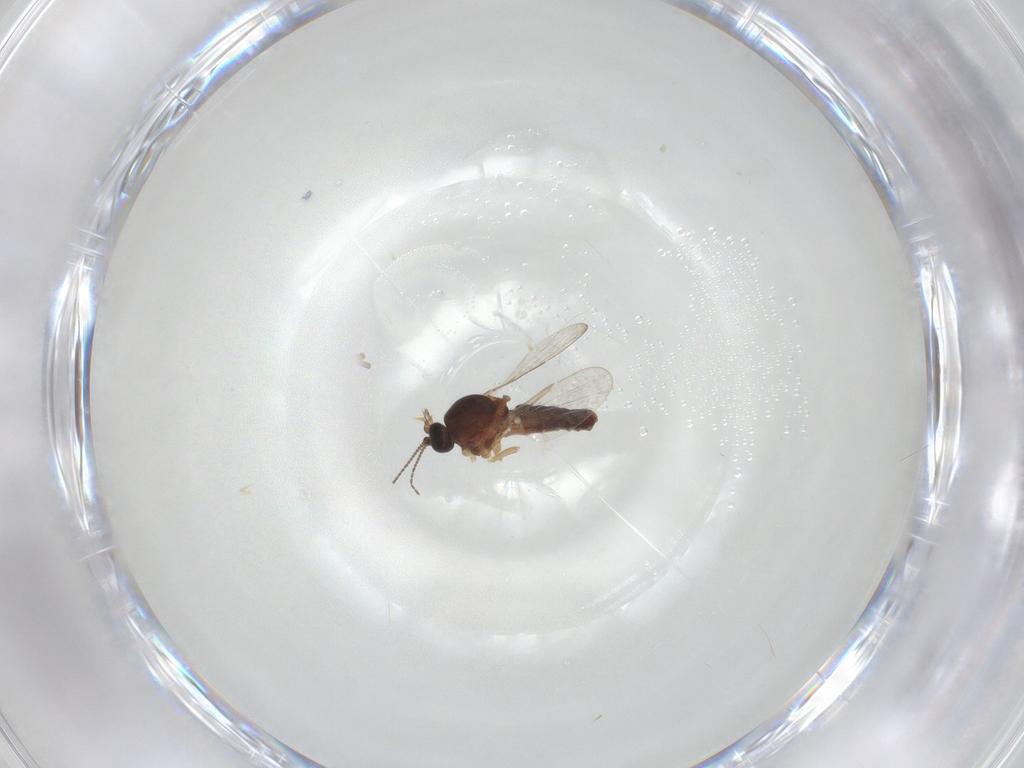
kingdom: Animalia
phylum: Arthropoda
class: Insecta
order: Diptera
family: Ceratopogonidae
